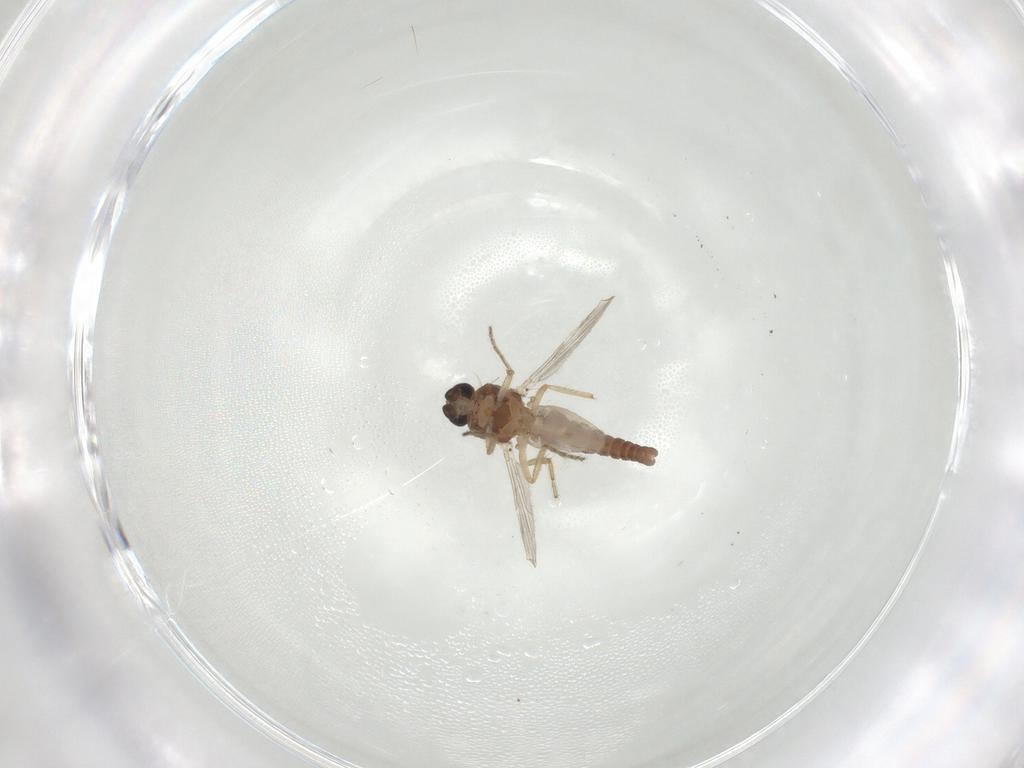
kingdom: Animalia
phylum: Arthropoda
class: Insecta
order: Diptera
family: Ceratopogonidae
